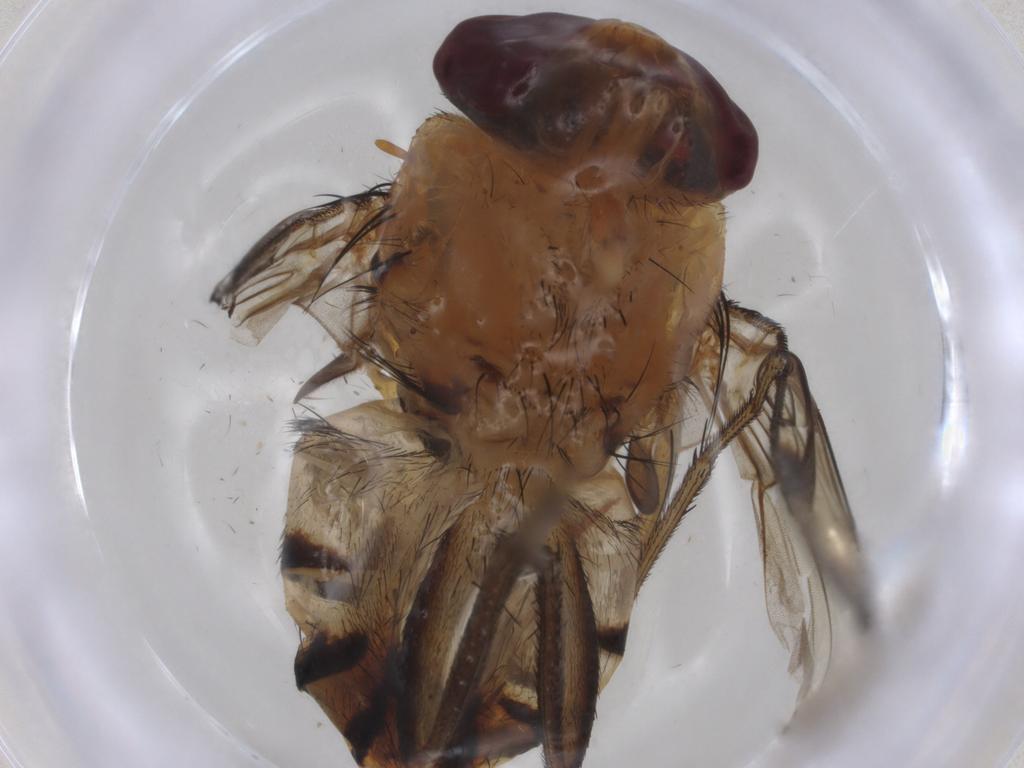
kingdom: Animalia
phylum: Arthropoda
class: Insecta
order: Diptera
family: Calliphoridae
